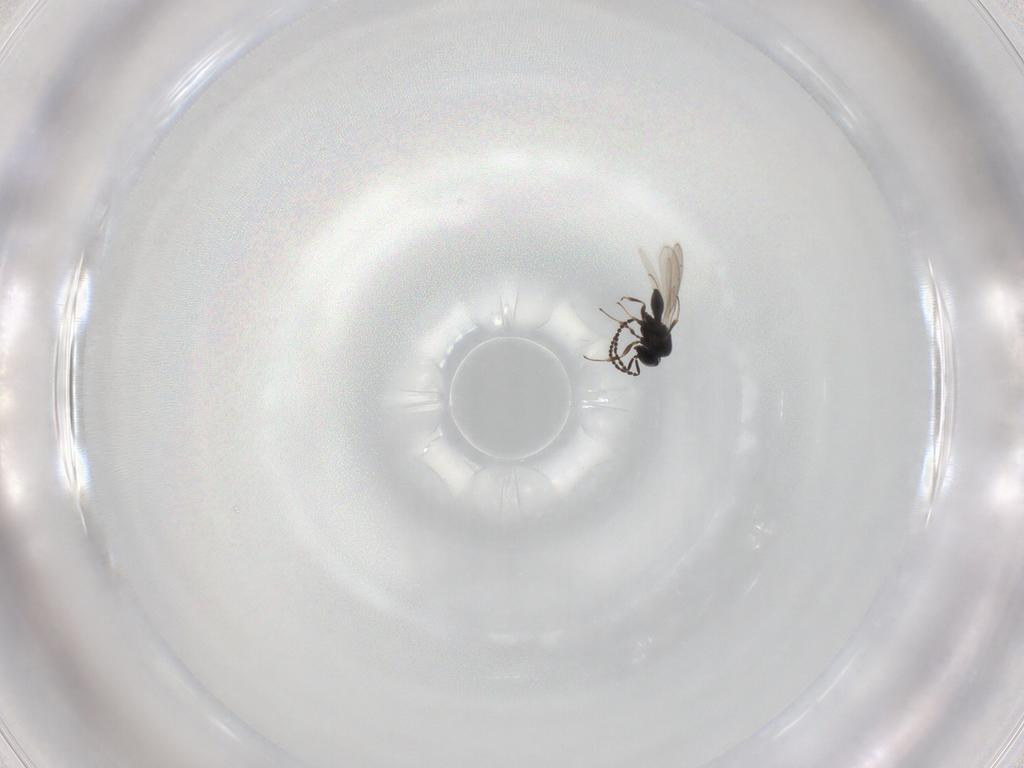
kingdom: Animalia
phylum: Arthropoda
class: Insecta
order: Hymenoptera
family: Scelionidae
